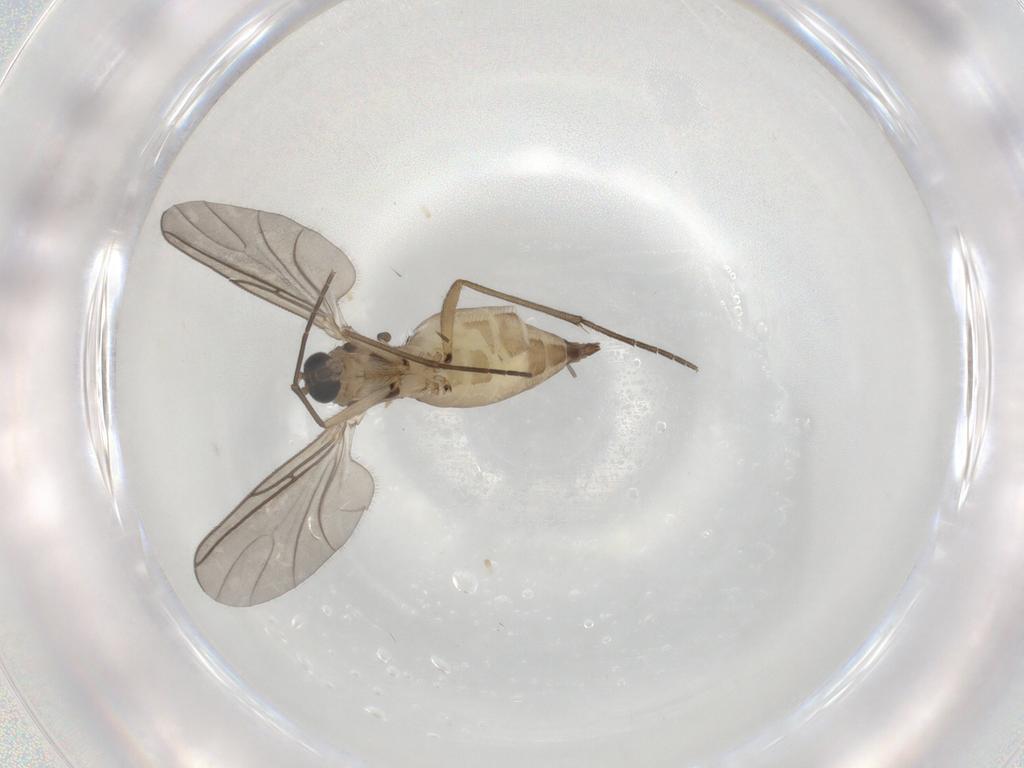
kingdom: Animalia
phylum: Arthropoda
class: Insecta
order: Diptera
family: Sciaridae
